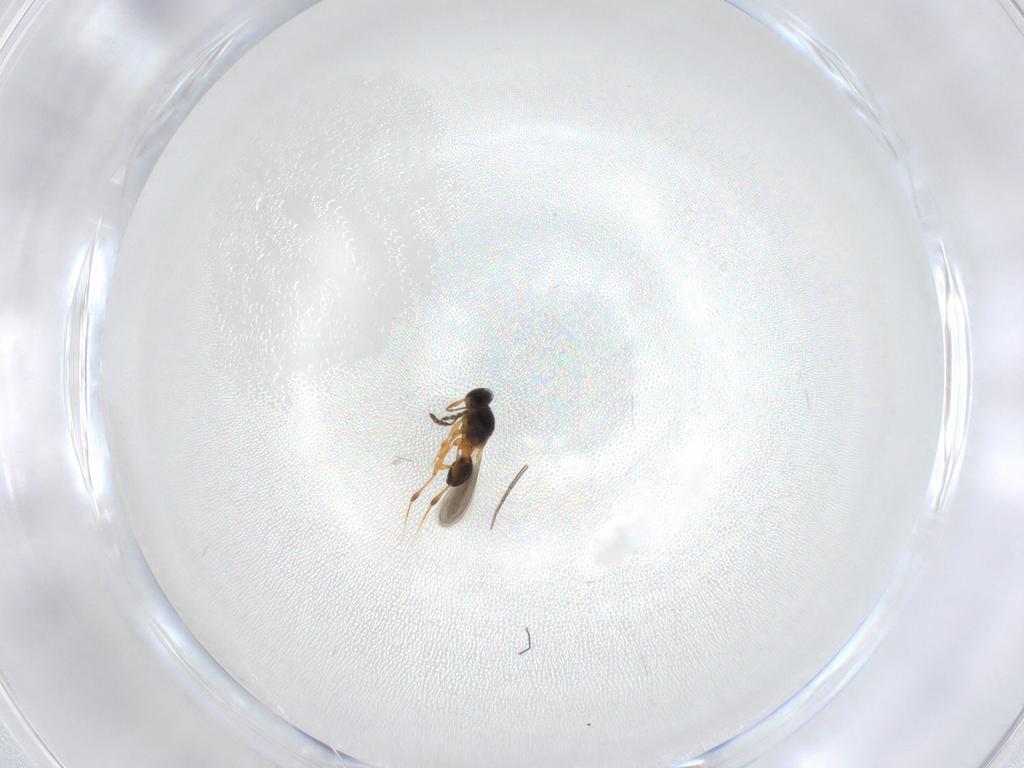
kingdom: Animalia
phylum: Arthropoda
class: Insecta
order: Hymenoptera
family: Platygastridae
